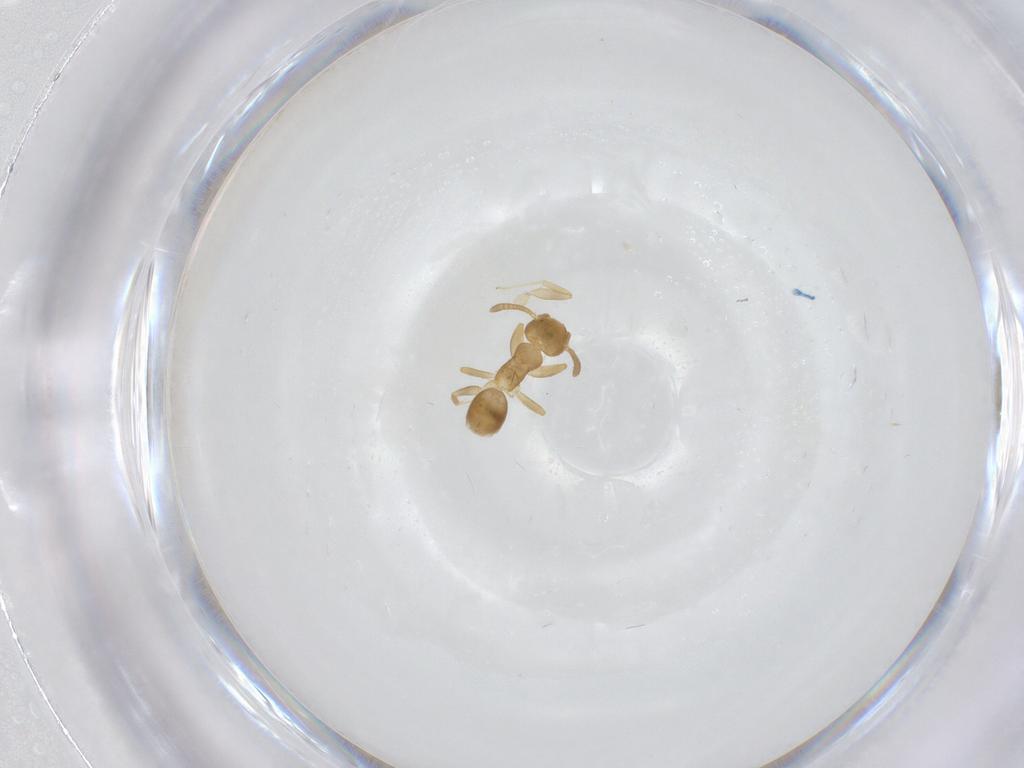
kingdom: Animalia
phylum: Arthropoda
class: Insecta
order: Hymenoptera
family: Formicidae
